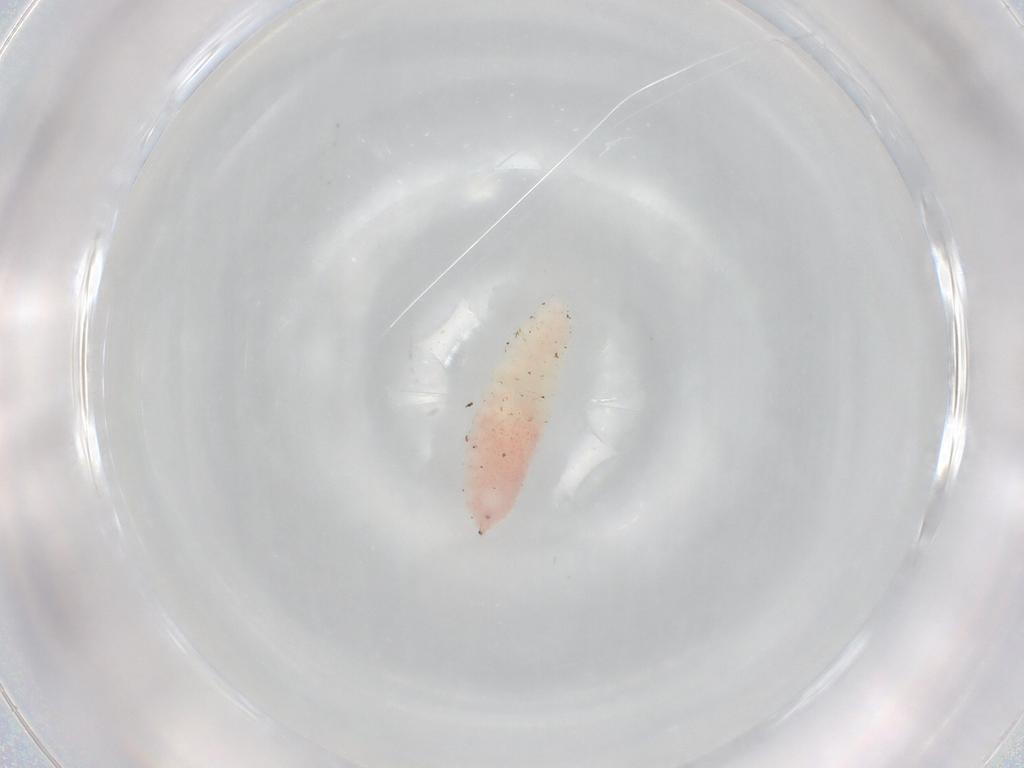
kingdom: Animalia
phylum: Arthropoda
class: Insecta
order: Diptera
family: Cecidomyiidae
